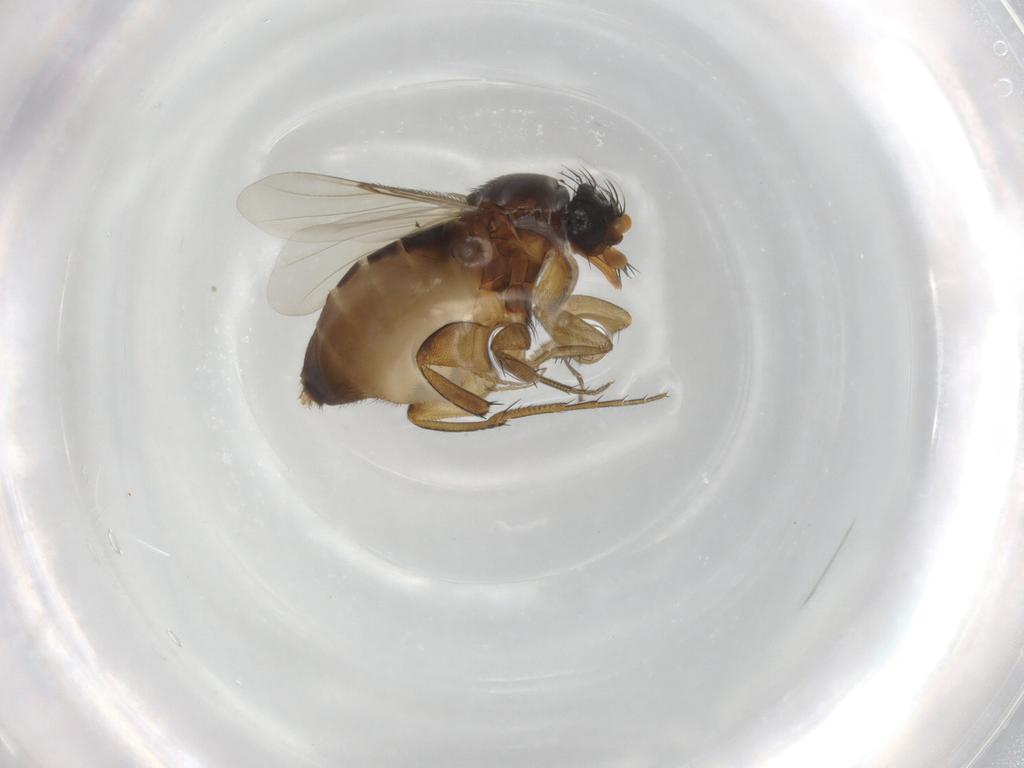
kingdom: Animalia
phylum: Arthropoda
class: Insecta
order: Diptera
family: Phoridae
